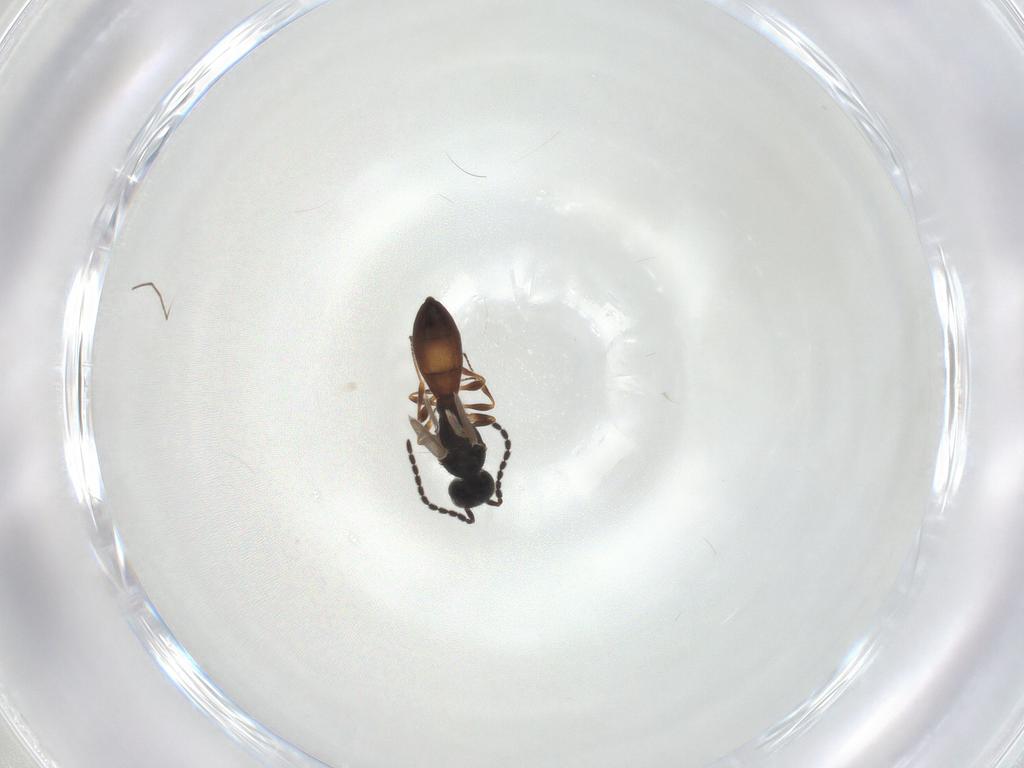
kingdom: Animalia
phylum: Arthropoda
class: Insecta
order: Hymenoptera
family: Scelionidae
